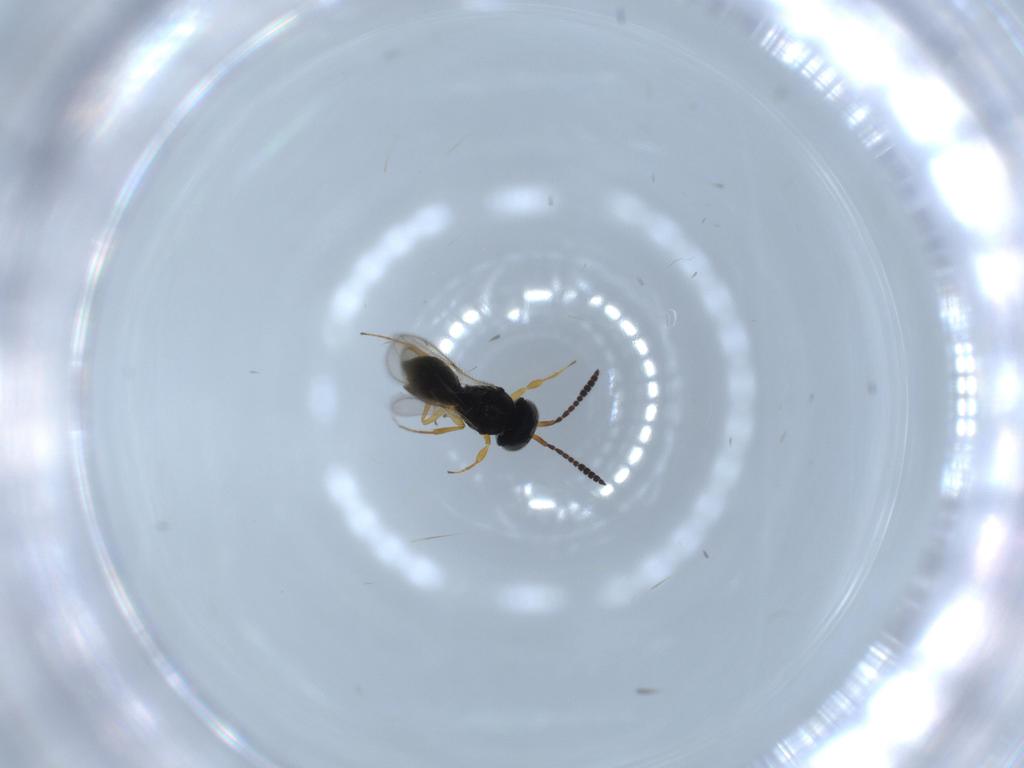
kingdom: Animalia
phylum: Arthropoda
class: Insecta
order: Hymenoptera
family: Scelionidae
